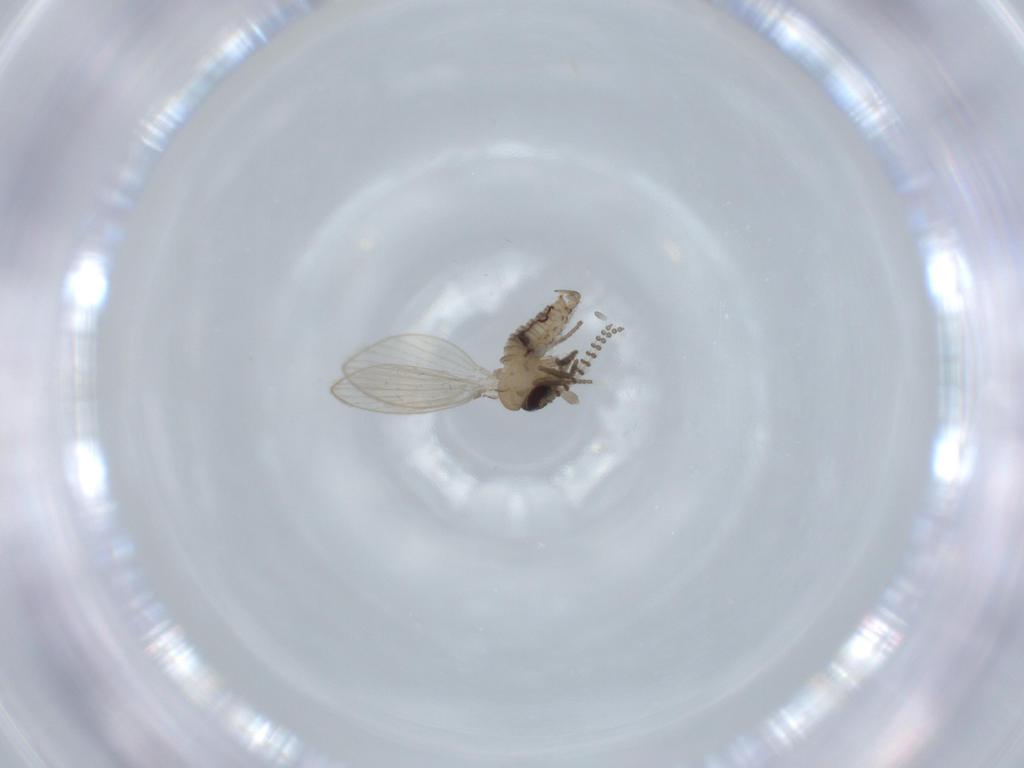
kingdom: Animalia
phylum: Arthropoda
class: Insecta
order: Diptera
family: Psychodidae
